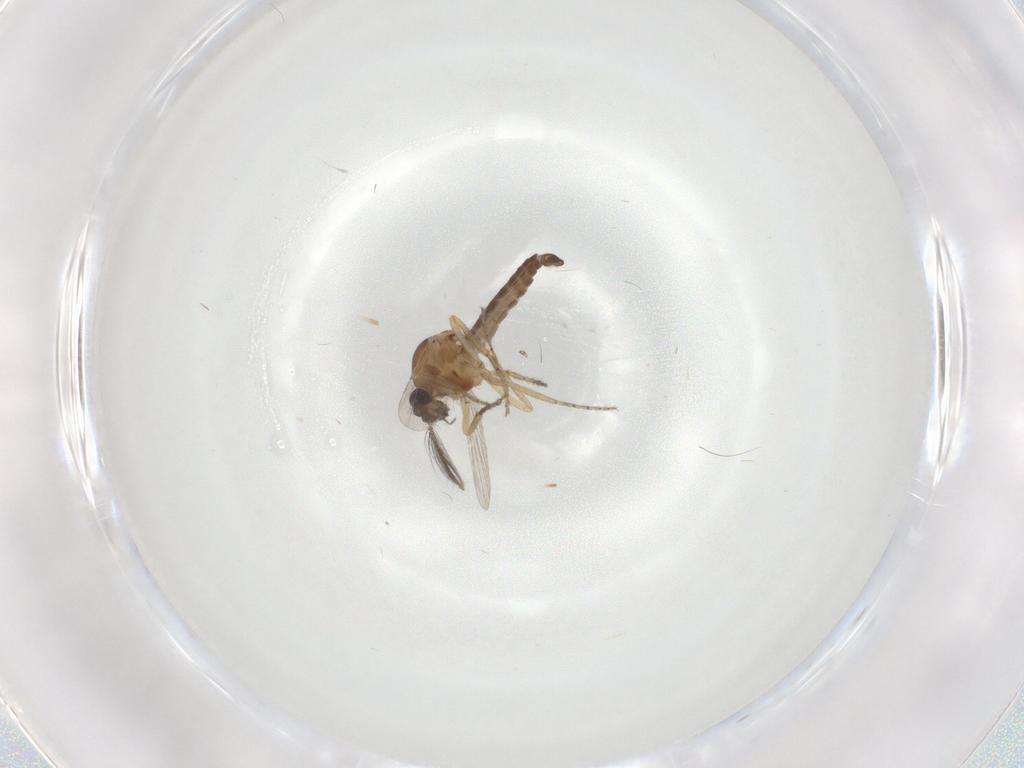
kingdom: Animalia
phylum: Arthropoda
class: Insecta
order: Diptera
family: Ceratopogonidae
